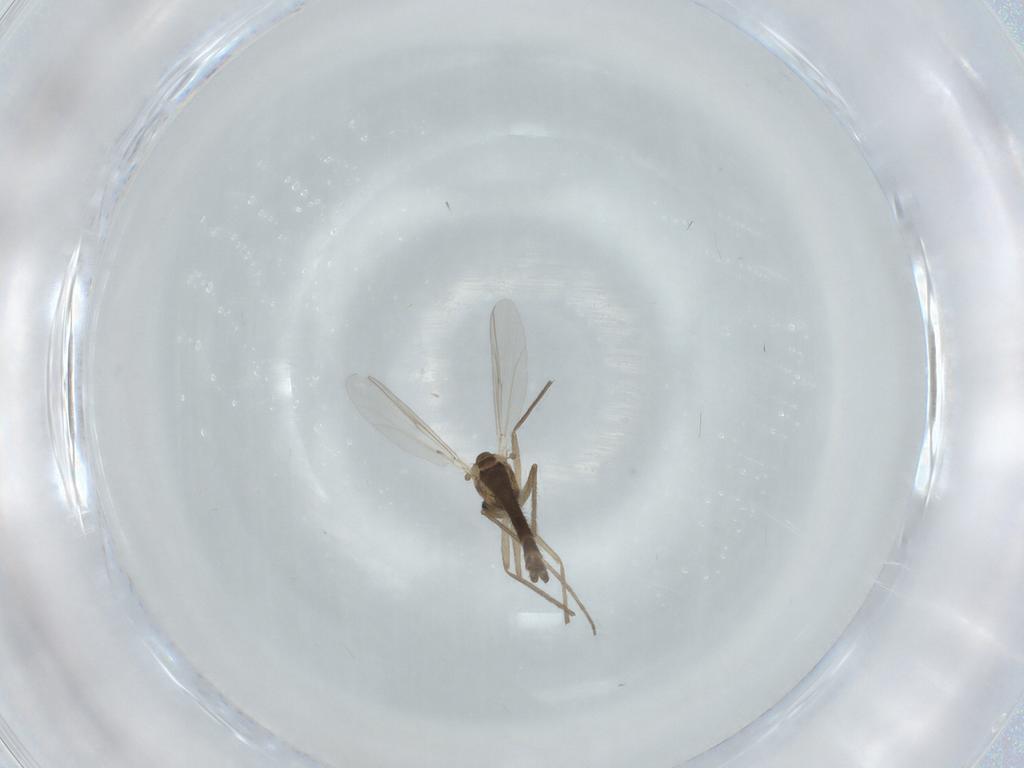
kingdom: Animalia
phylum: Arthropoda
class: Insecta
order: Diptera
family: Chironomidae
